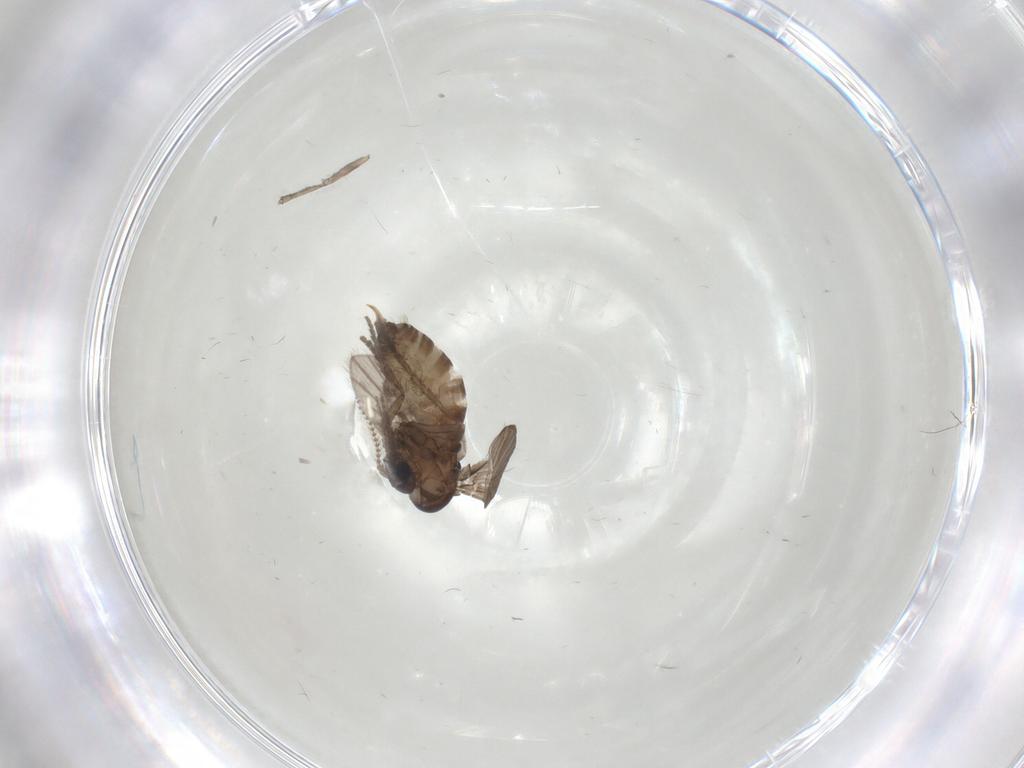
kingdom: Animalia
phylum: Arthropoda
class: Insecta
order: Diptera
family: Psychodidae
